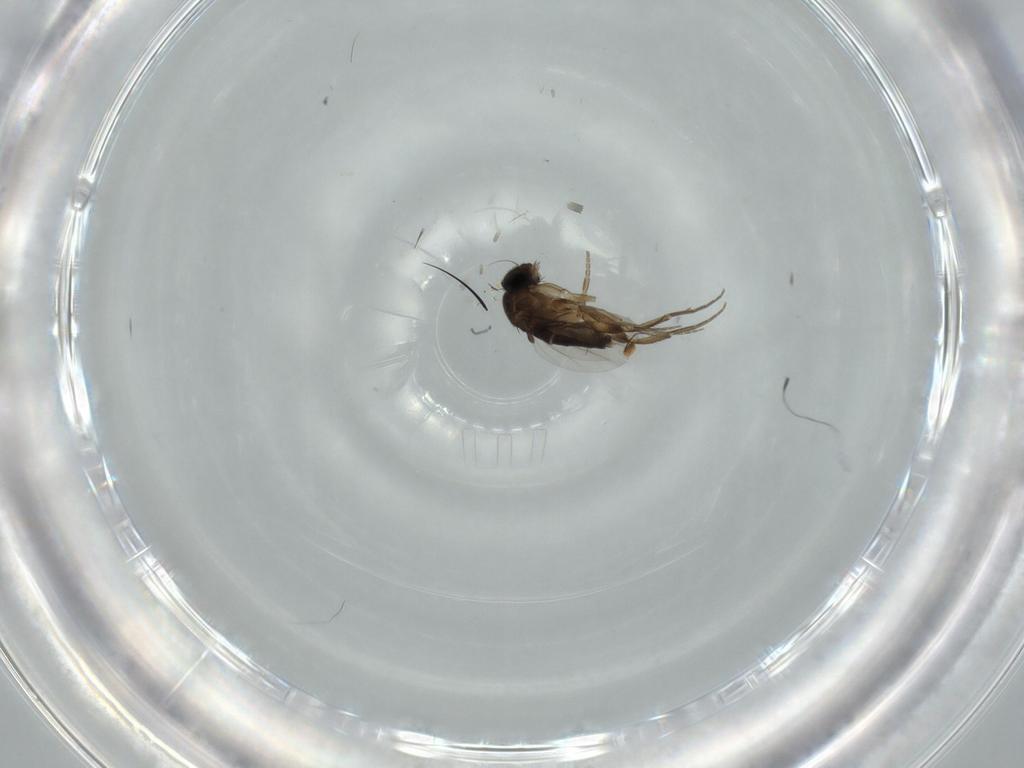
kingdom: Animalia
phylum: Arthropoda
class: Insecta
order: Diptera
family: Phoridae
